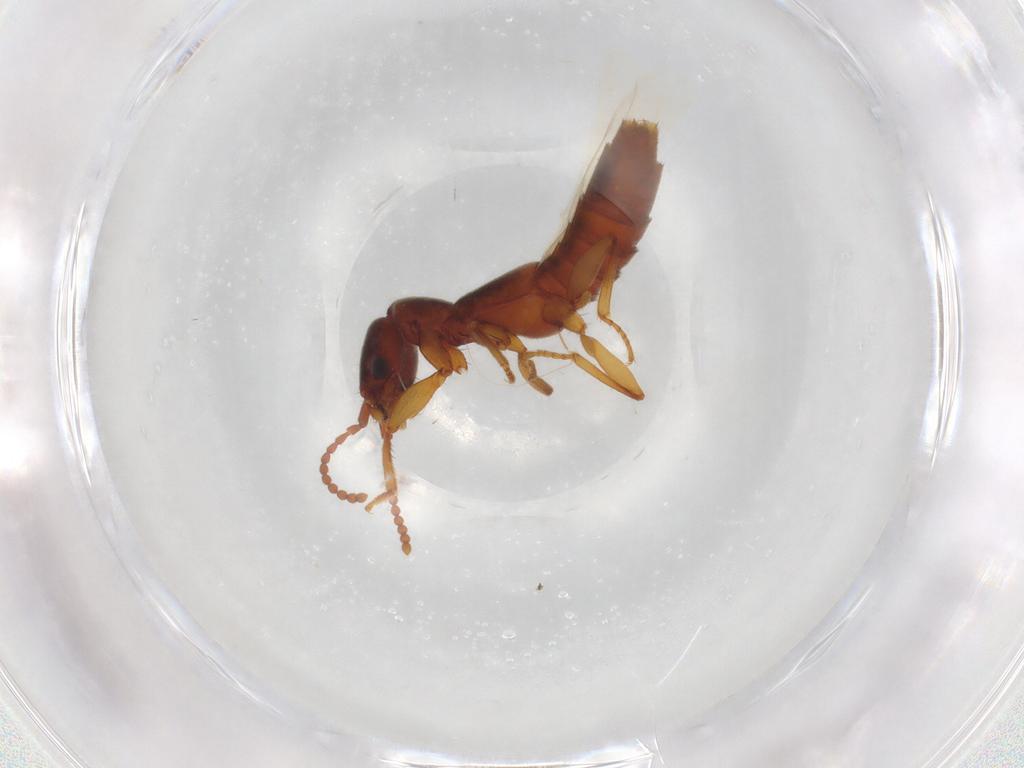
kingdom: Animalia
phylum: Arthropoda
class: Insecta
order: Coleoptera
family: Staphylinidae
